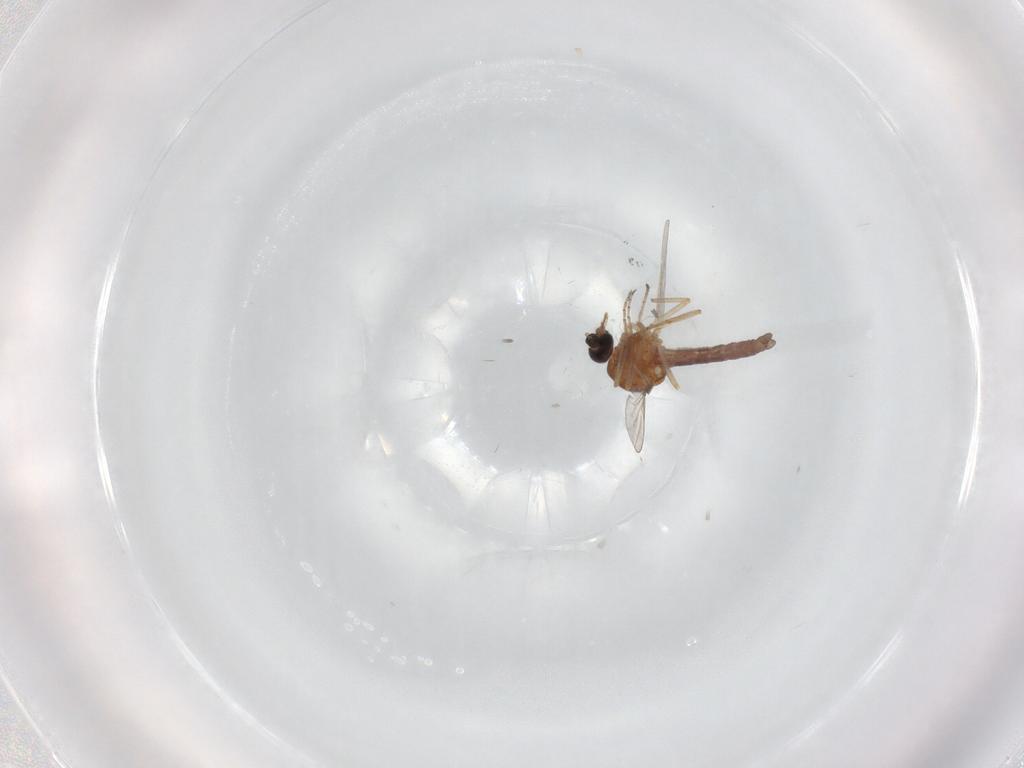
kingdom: Animalia
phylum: Arthropoda
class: Insecta
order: Diptera
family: Ceratopogonidae
